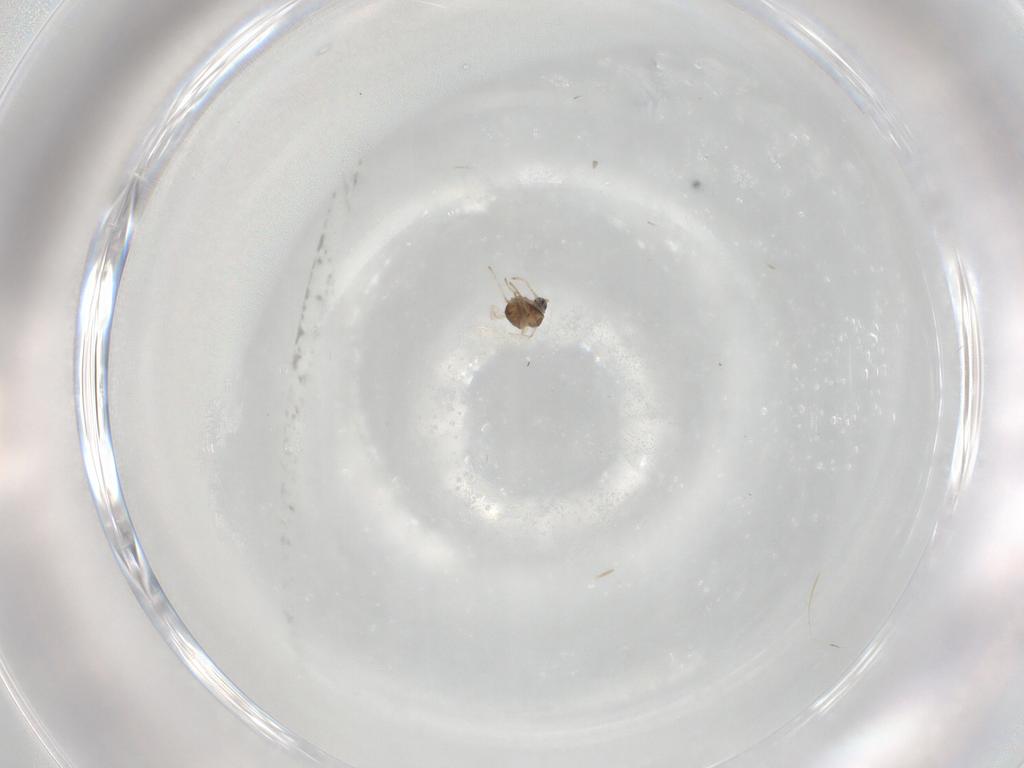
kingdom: Animalia
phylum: Arthropoda
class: Insecta
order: Diptera
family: Cecidomyiidae
